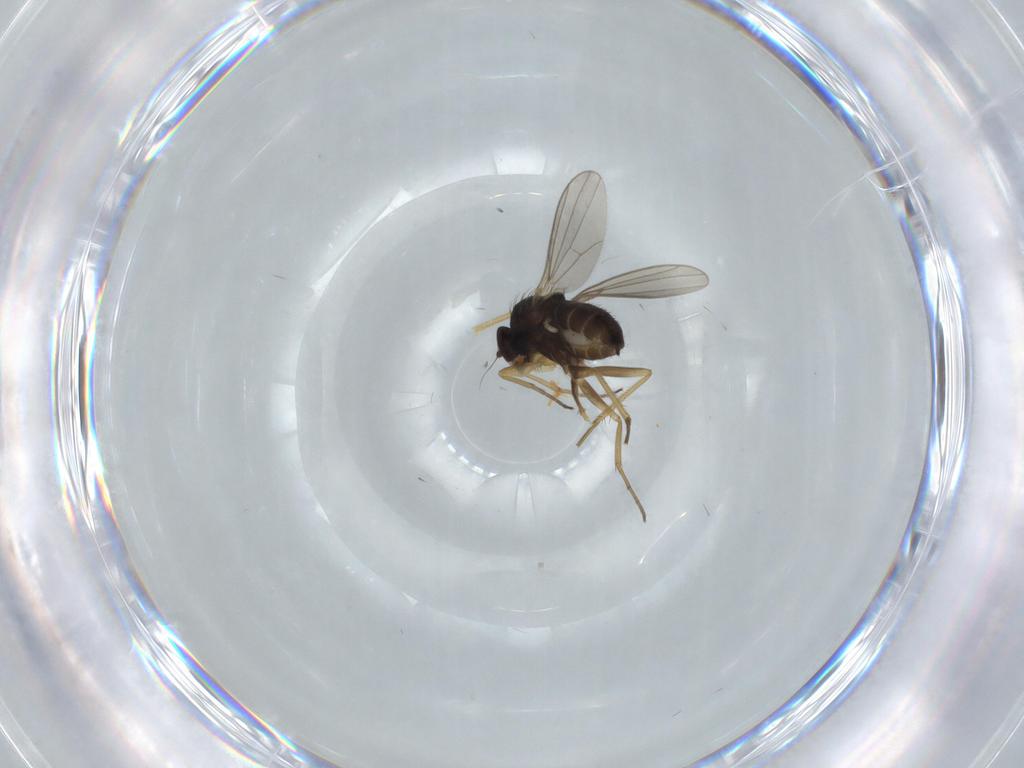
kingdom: Animalia
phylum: Arthropoda
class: Insecta
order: Diptera
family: Dolichopodidae
